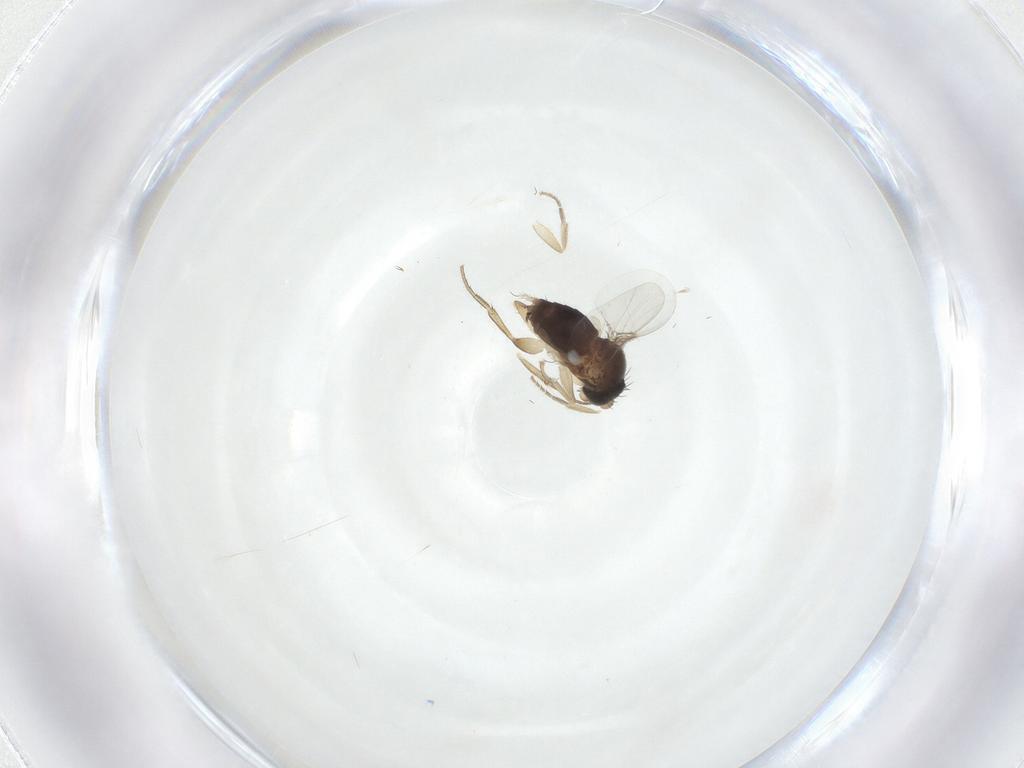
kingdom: Animalia
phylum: Arthropoda
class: Insecta
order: Diptera
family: Phoridae
